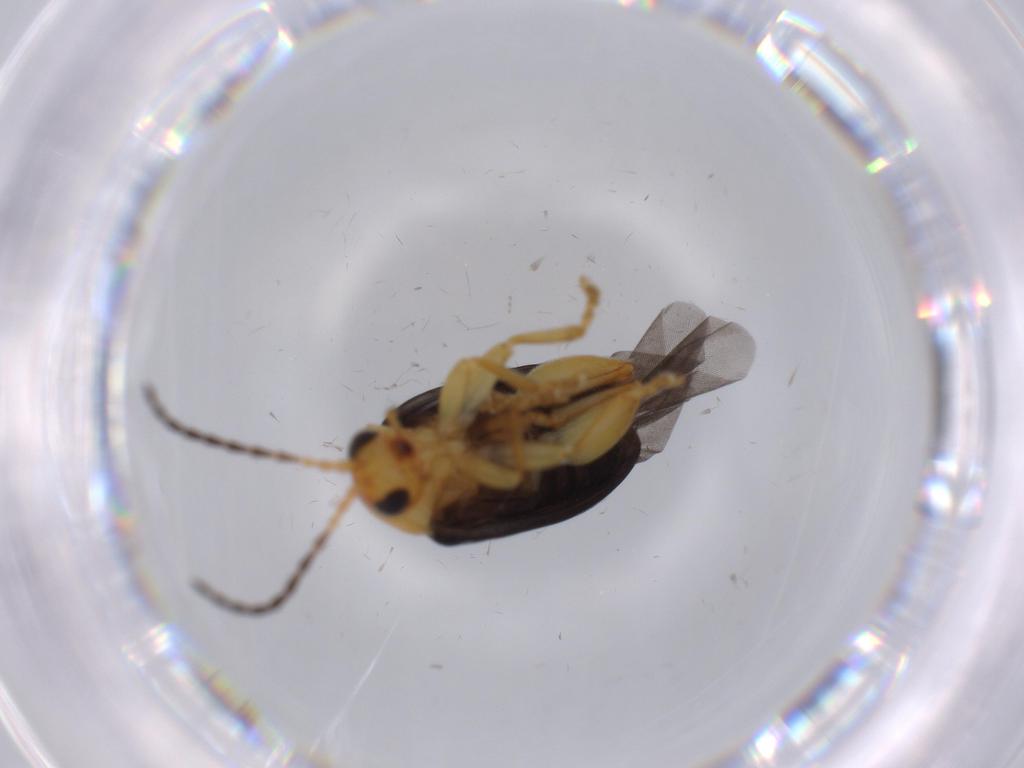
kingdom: Animalia
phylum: Arthropoda
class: Insecta
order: Coleoptera
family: Chrysomelidae
